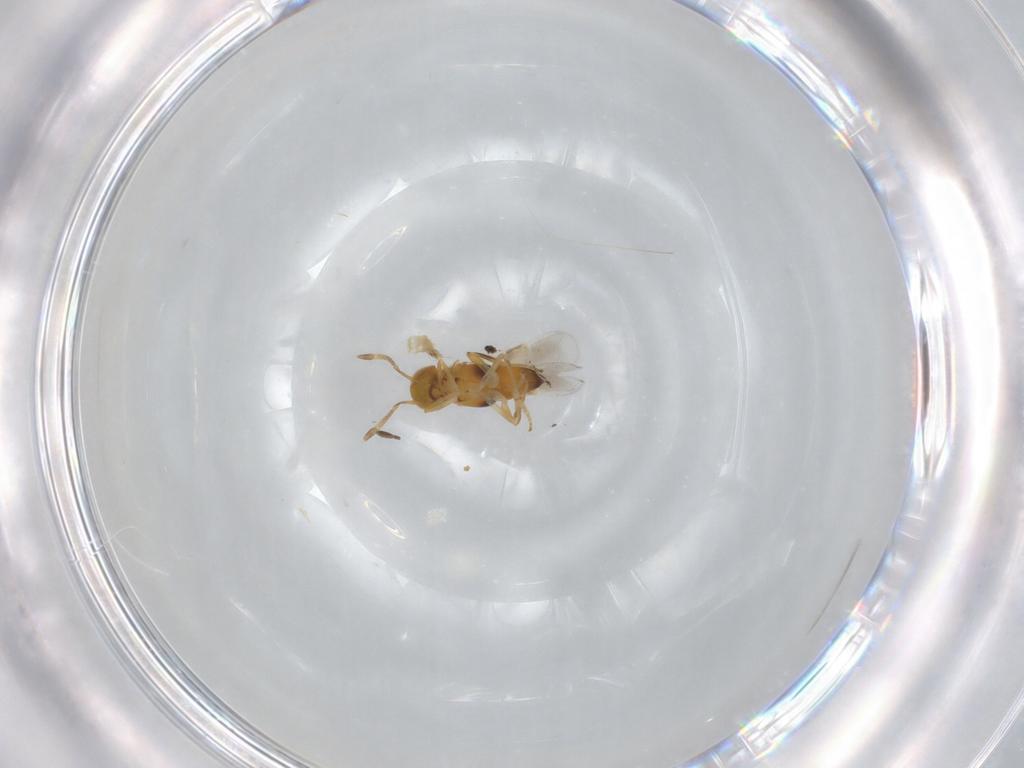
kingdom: Animalia
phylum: Arthropoda
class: Insecta
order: Hymenoptera
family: Mymaridae
